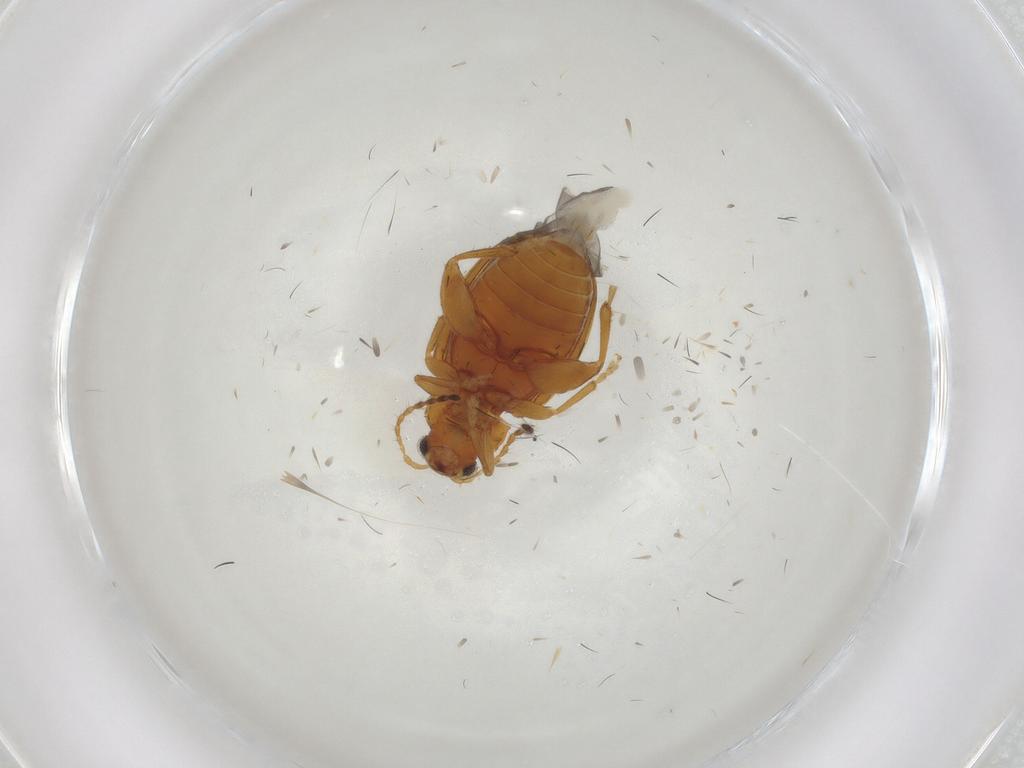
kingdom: Animalia
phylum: Arthropoda
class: Insecta
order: Coleoptera
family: Chrysomelidae
